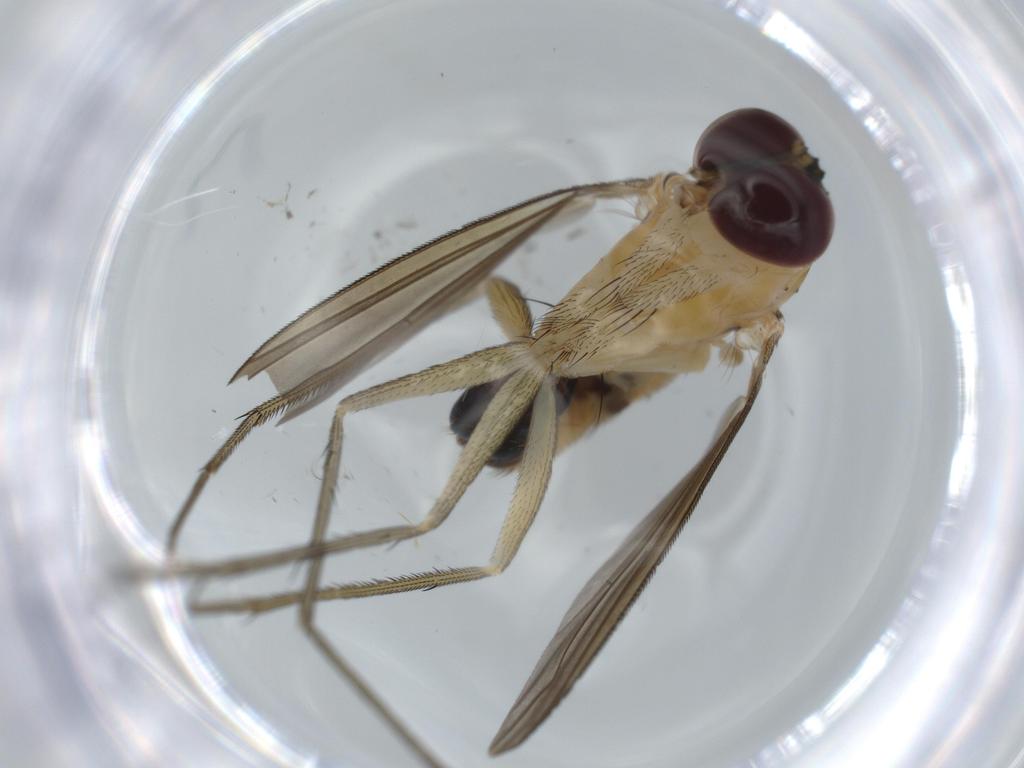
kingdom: Animalia
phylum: Arthropoda
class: Insecta
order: Diptera
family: Dolichopodidae
